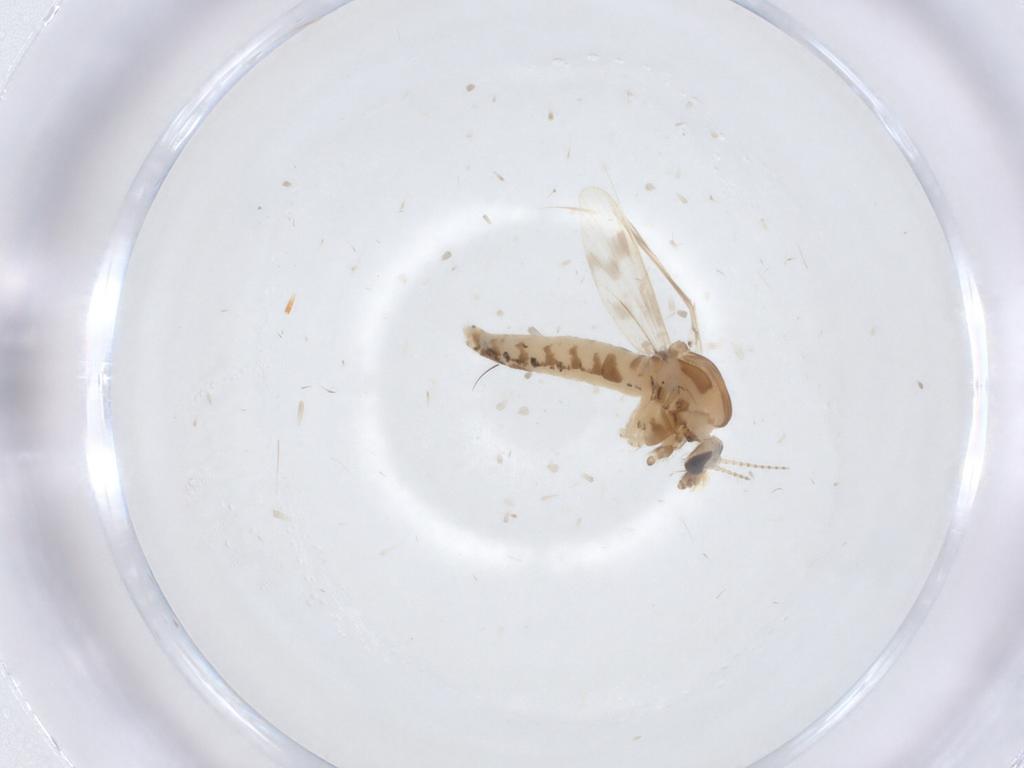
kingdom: Animalia
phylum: Arthropoda
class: Insecta
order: Diptera
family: Corethrellidae
